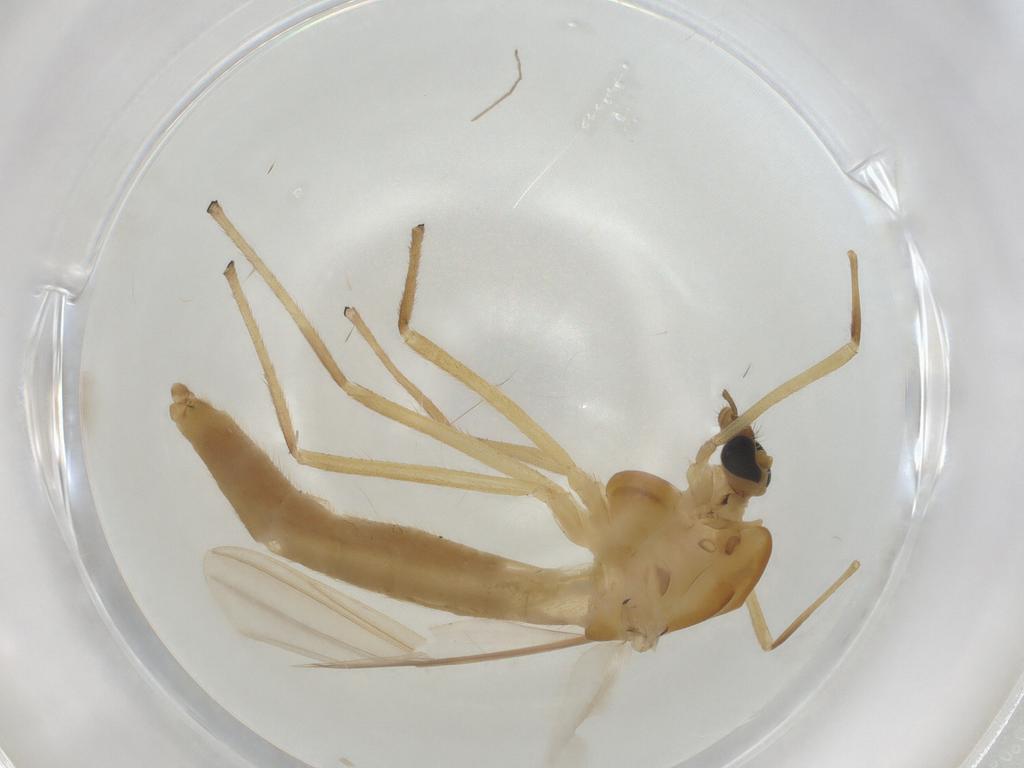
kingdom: Animalia
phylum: Arthropoda
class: Insecta
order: Diptera
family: Chironomidae
